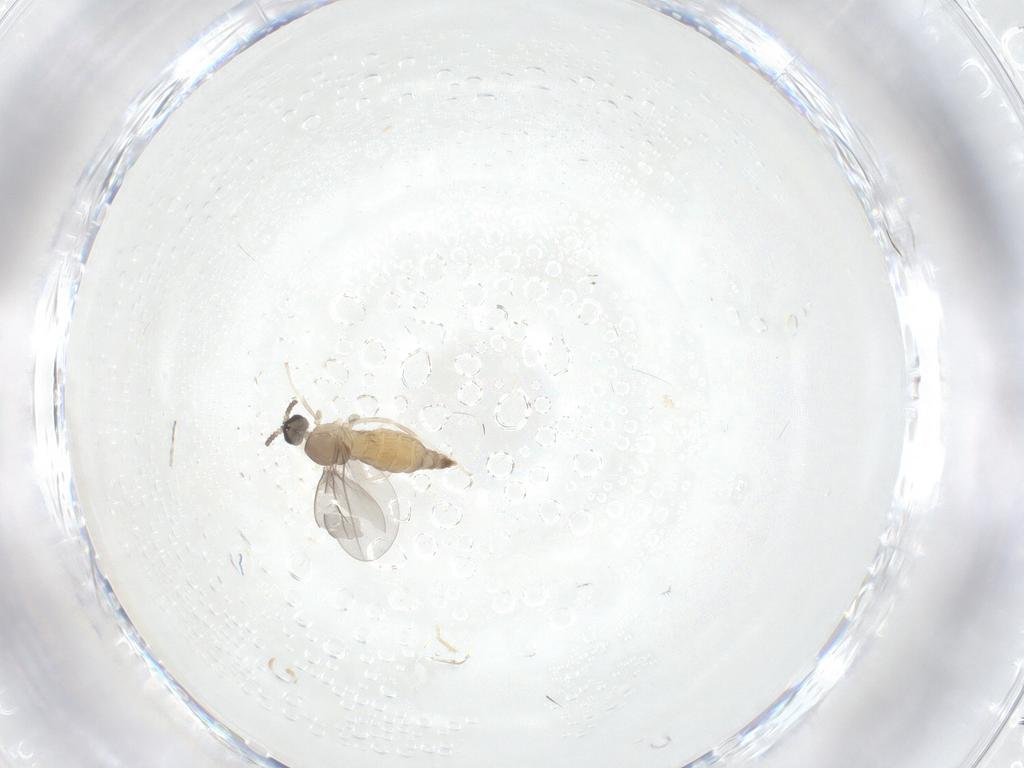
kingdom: Animalia
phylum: Arthropoda
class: Insecta
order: Diptera
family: Cecidomyiidae
